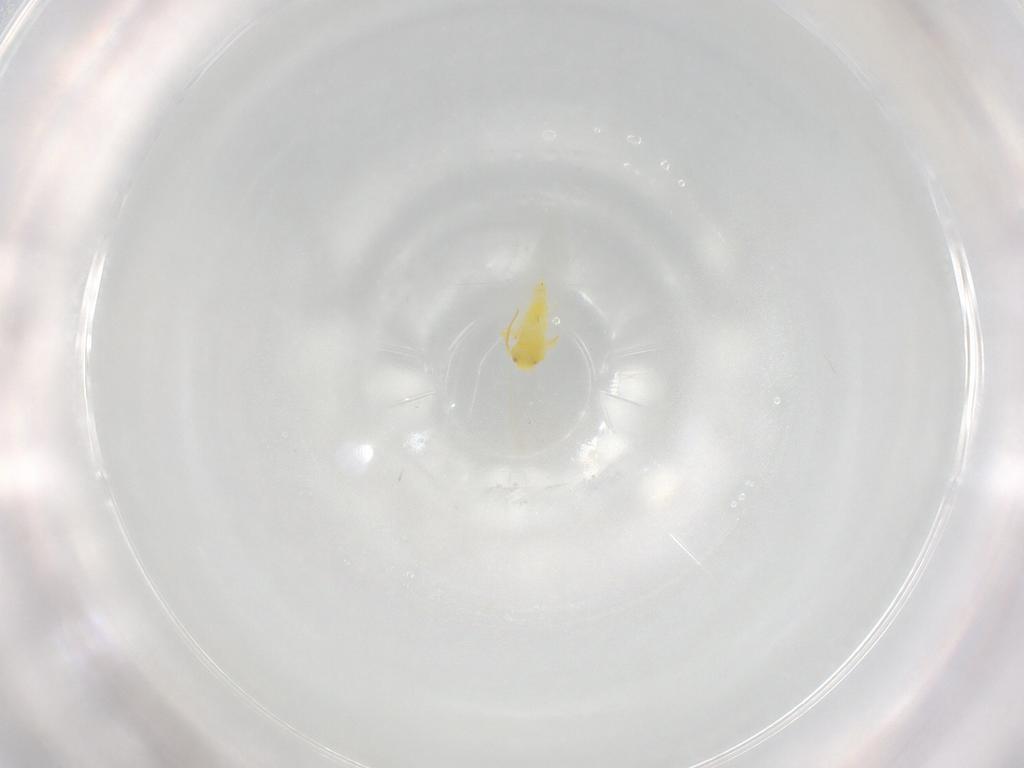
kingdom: Animalia
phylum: Arthropoda
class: Insecta
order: Hemiptera
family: Aleyrodidae
